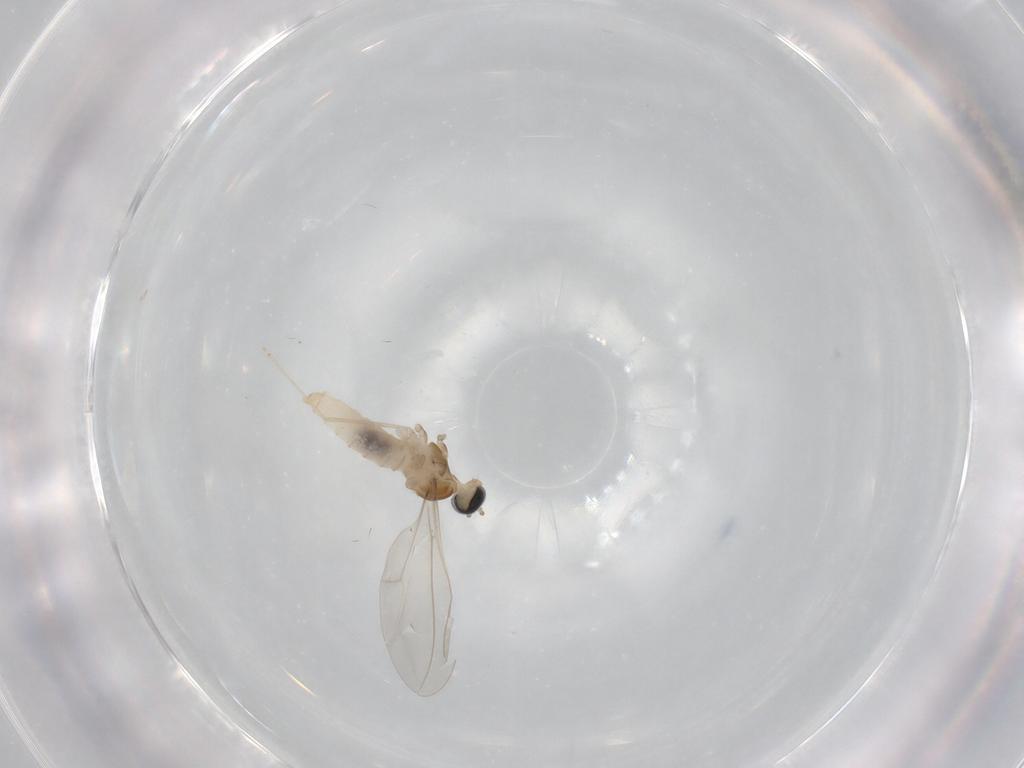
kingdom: Animalia
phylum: Arthropoda
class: Insecta
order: Diptera
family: Cecidomyiidae
